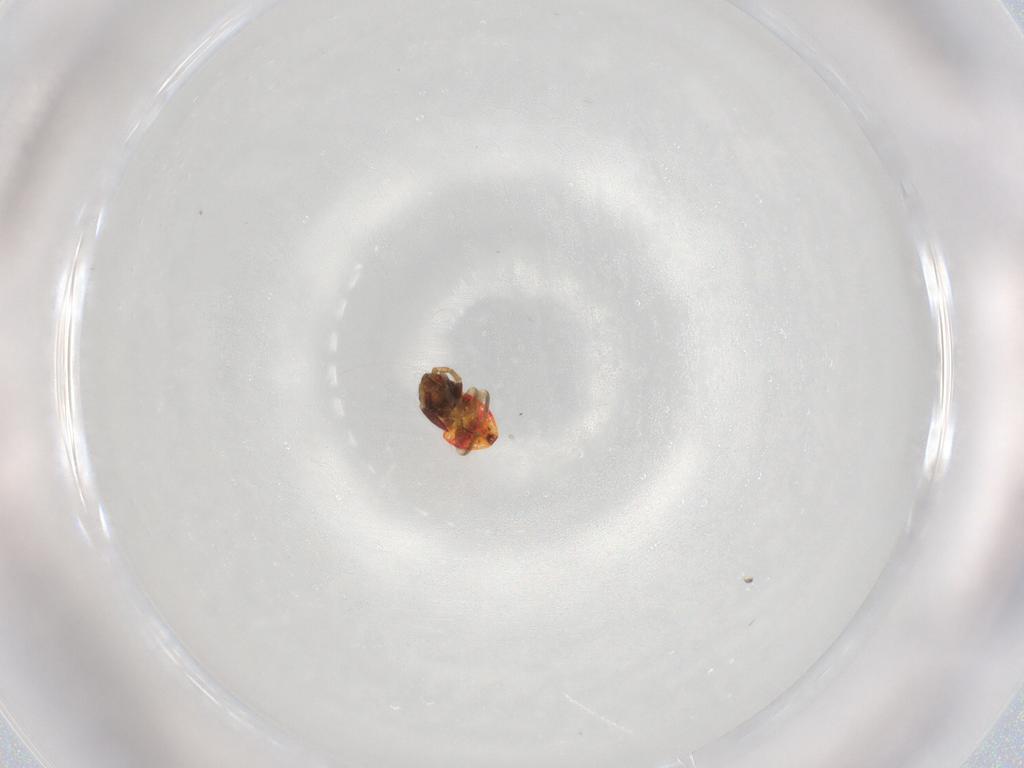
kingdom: Animalia
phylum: Arthropoda
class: Insecta
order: Hemiptera
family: Rhyparochromidae
